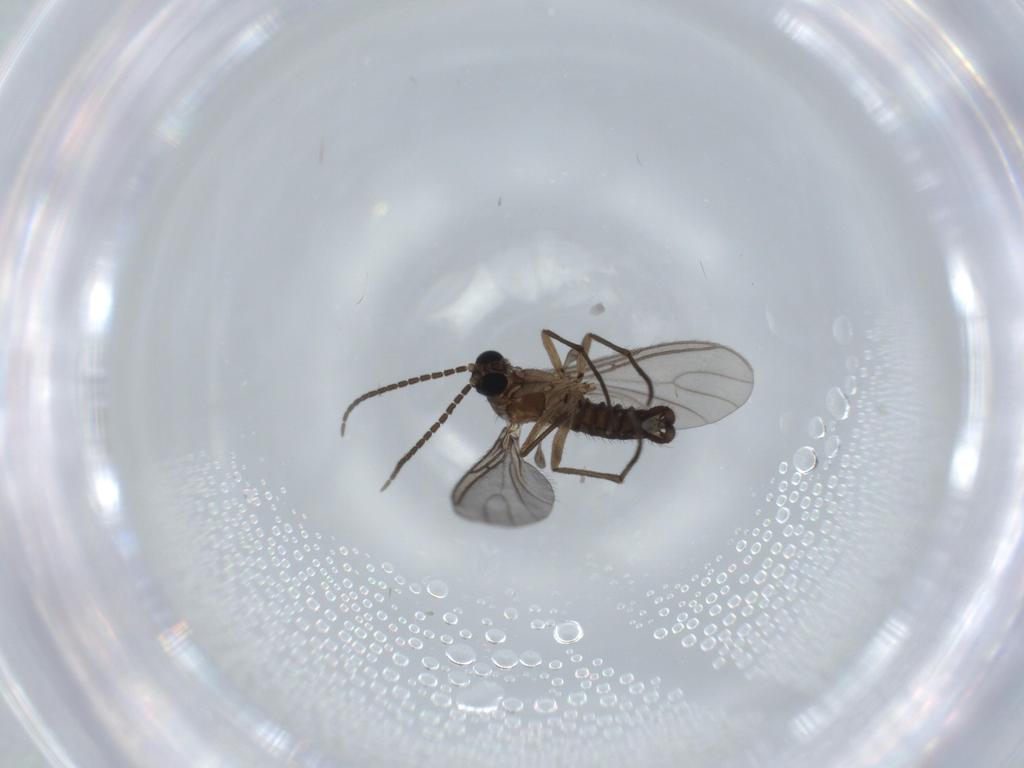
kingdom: Animalia
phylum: Arthropoda
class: Insecta
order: Diptera
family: Sciaridae
